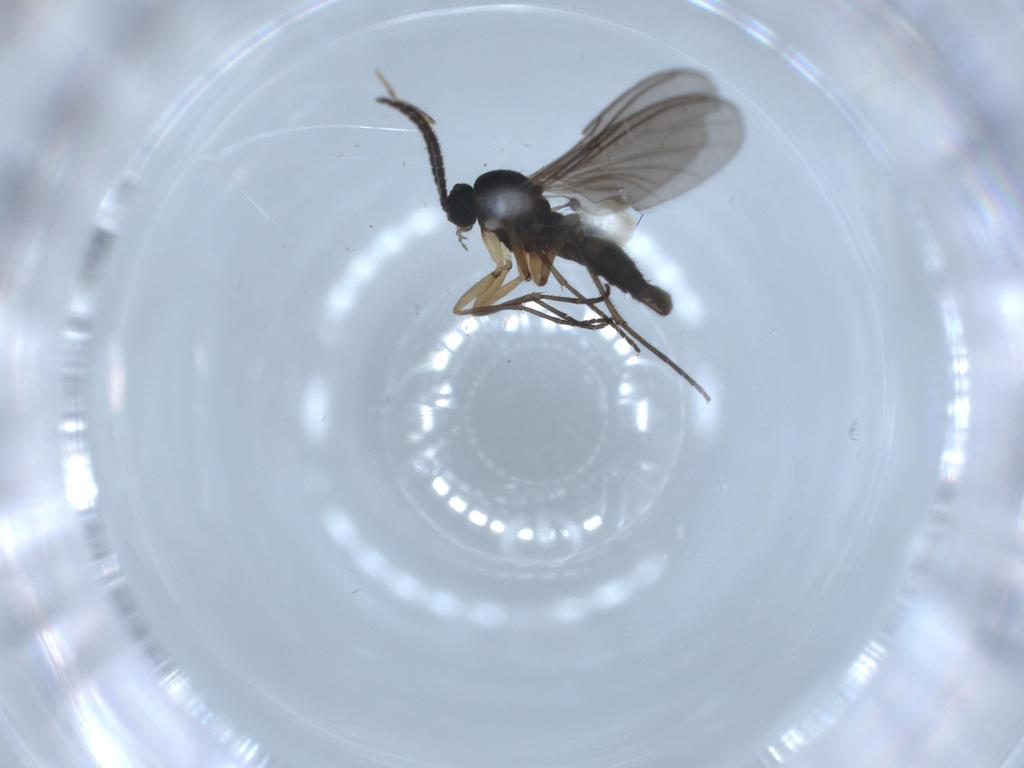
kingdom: Animalia
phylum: Arthropoda
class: Insecta
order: Diptera
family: Sciaridae
